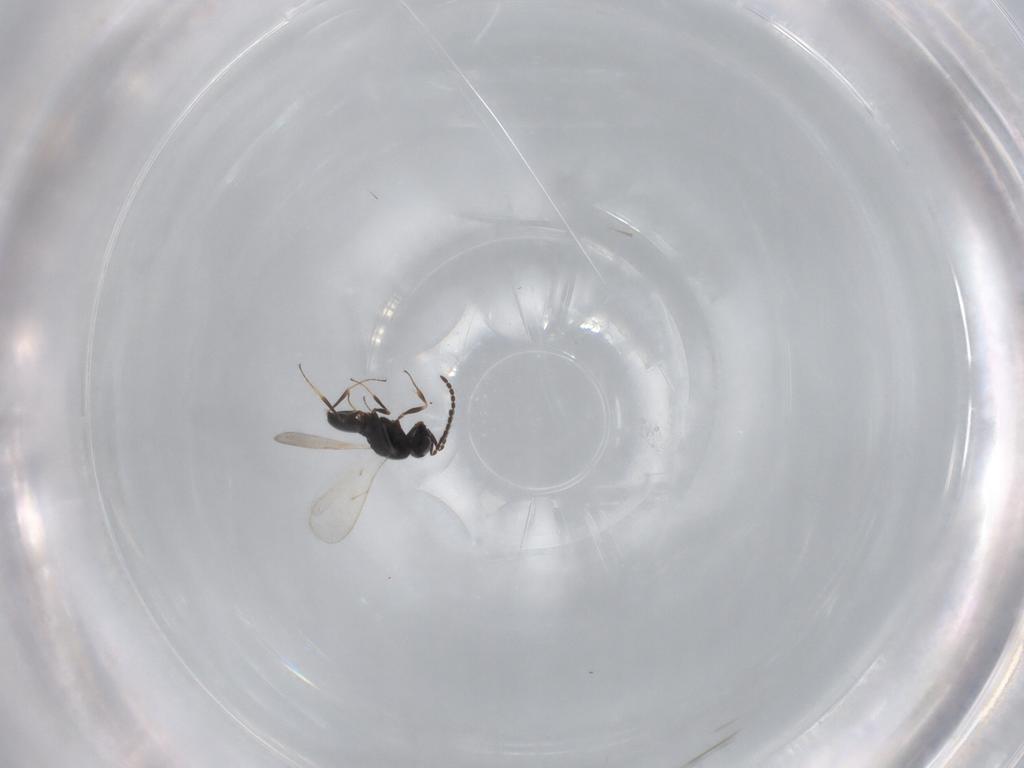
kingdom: Animalia
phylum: Arthropoda
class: Insecta
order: Hymenoptera
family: Scelionidae
